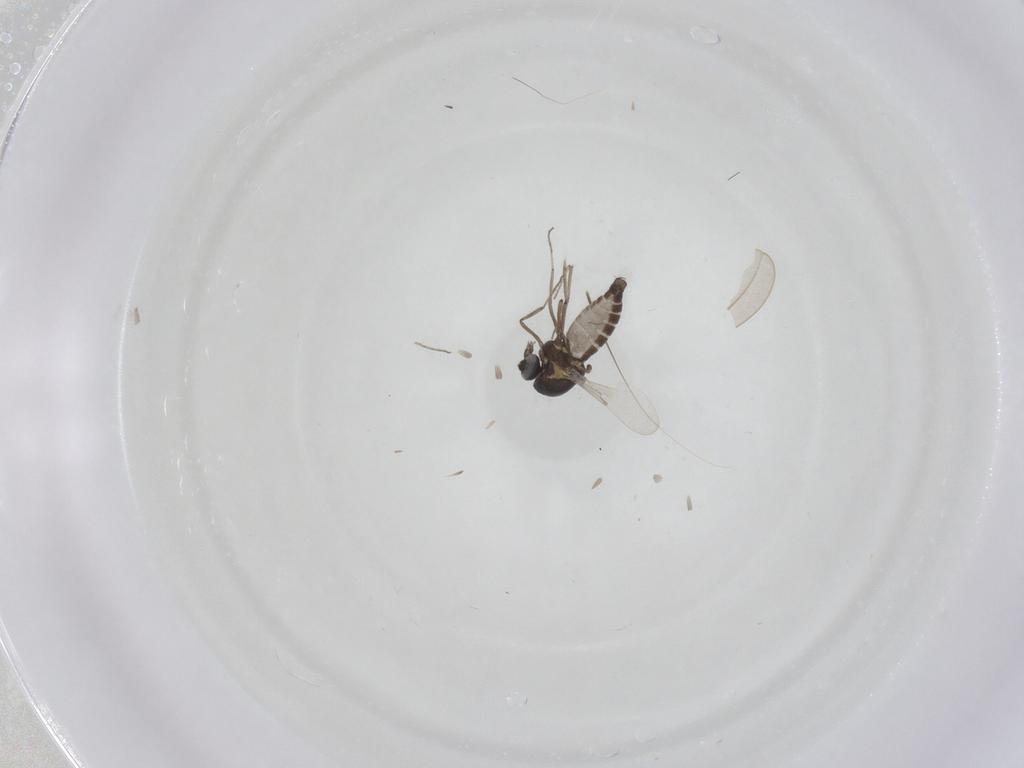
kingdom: Animalia
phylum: Arthropoda
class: Insecta
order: Diptera
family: Ceratopogonidae
